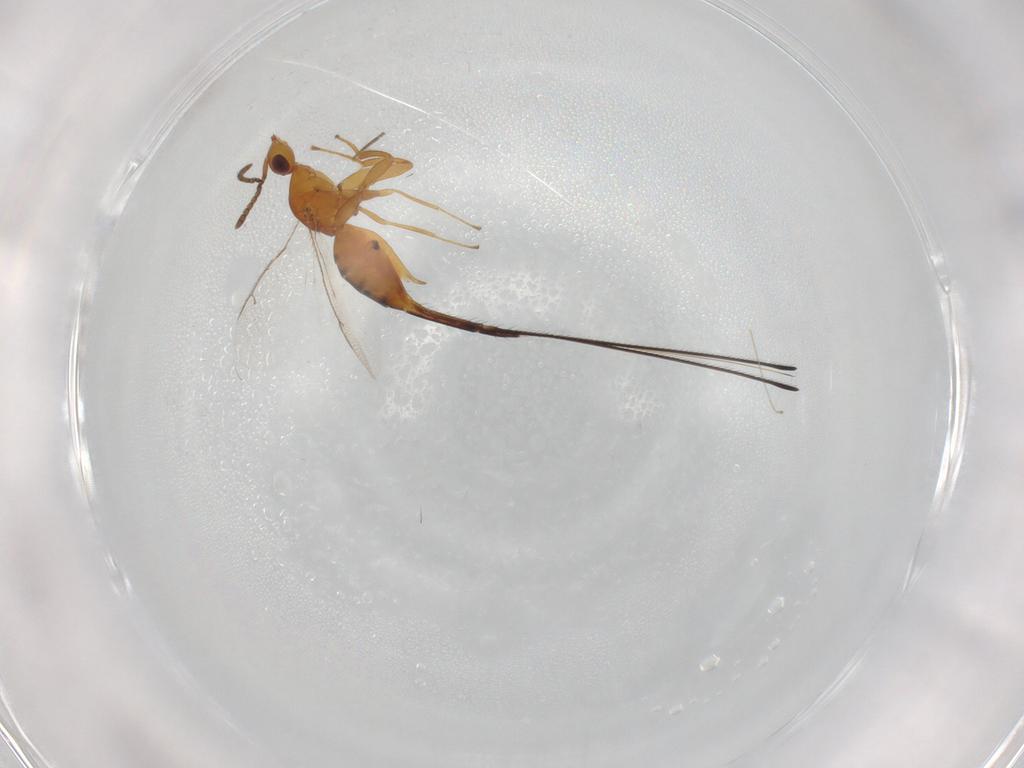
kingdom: Animalia
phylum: Arthropoda
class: Insecta
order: Hymenoptera
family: Pteromalidae
